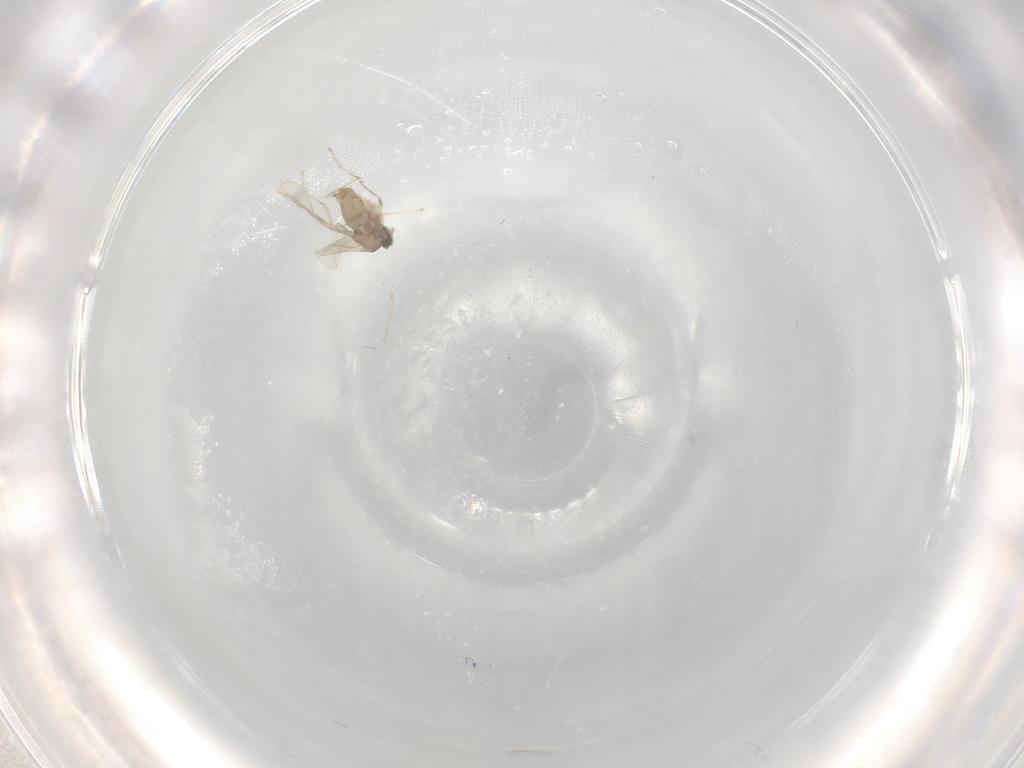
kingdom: Animalia
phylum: Arthropoda
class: Insecta
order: Diptera
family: Cecidomyiidae
